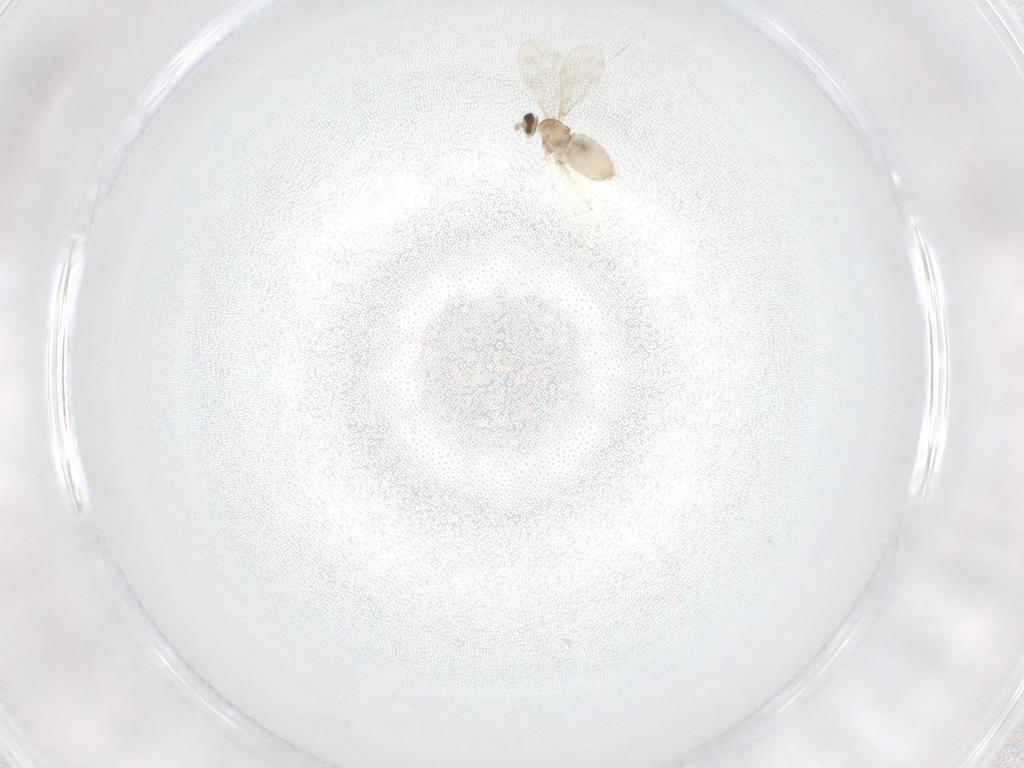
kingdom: Animalia
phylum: Arthropoda
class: Insecta
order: Diptera
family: Cecidomyiidae
